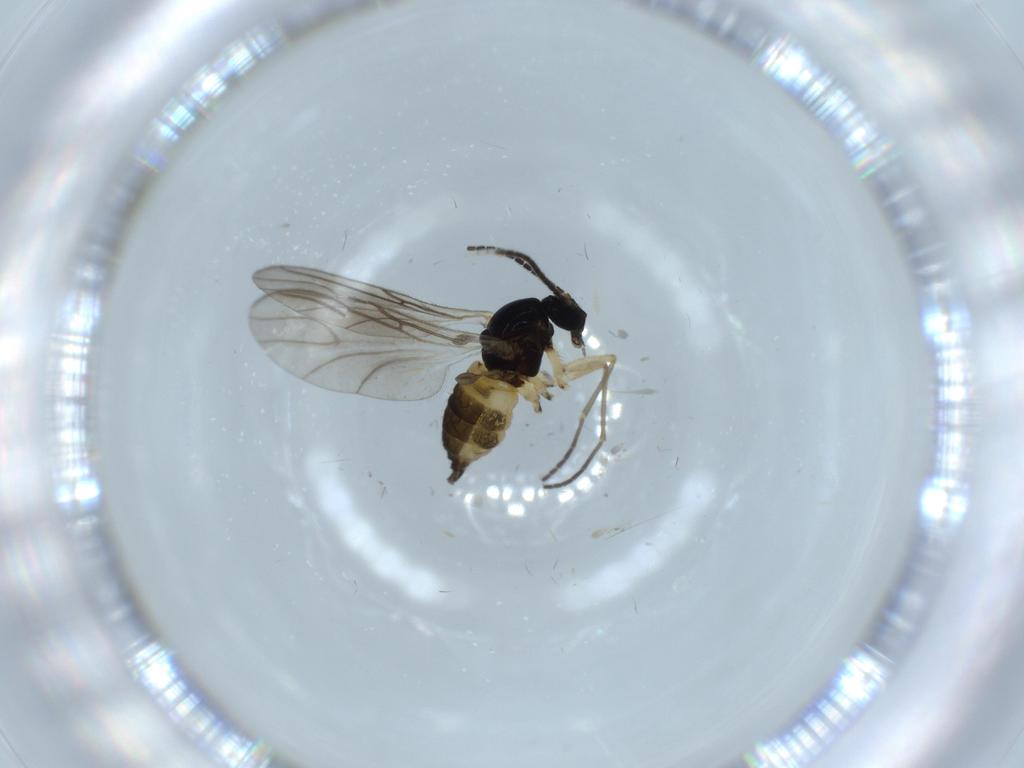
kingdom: Animalia
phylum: Arthropoda
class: Insecta
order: Diptera
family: Sciaridae
